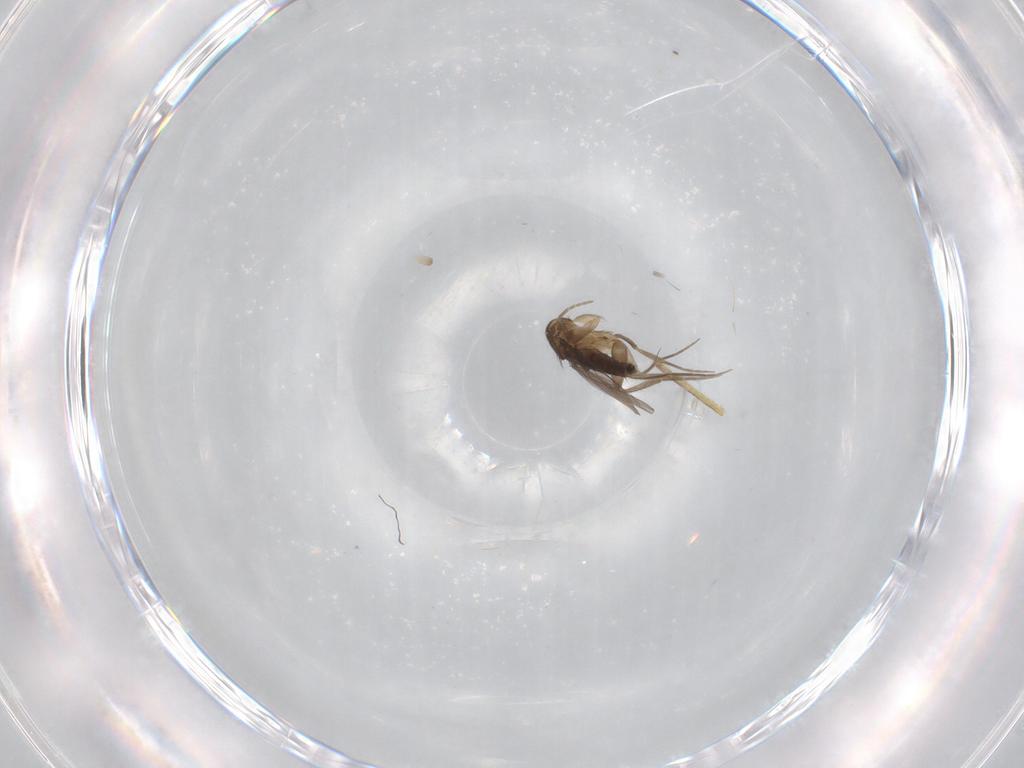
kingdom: Animalia
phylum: Arthropoda
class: Insecta
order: Diptera
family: Phoridae
